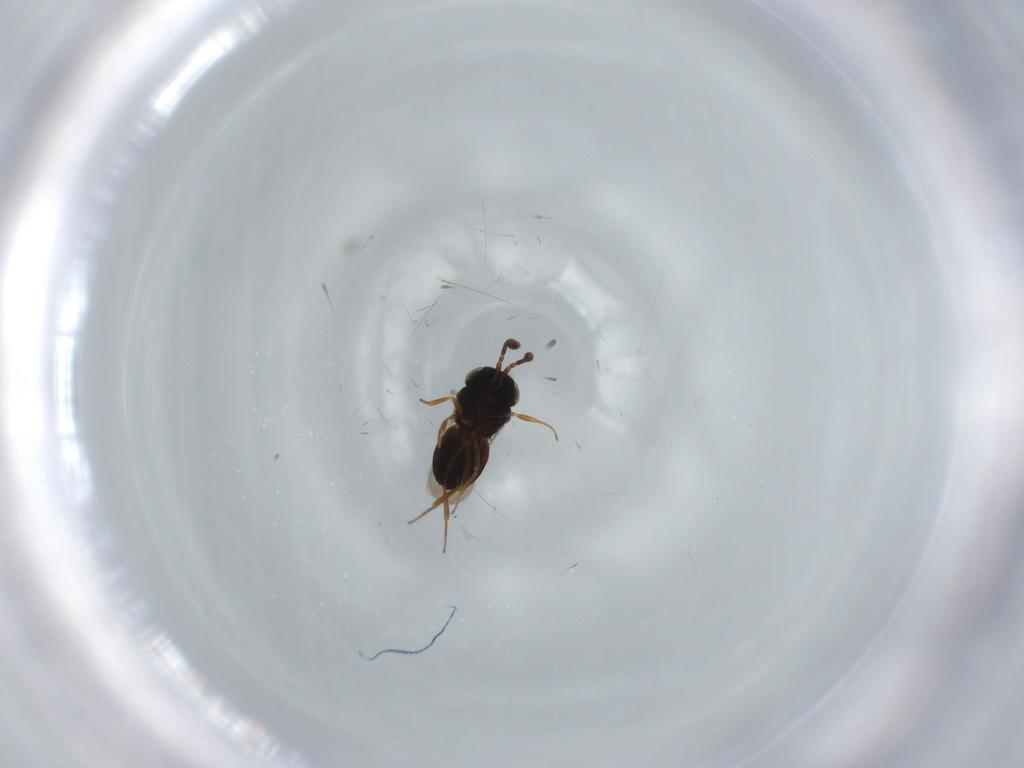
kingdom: Animalia
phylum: Arthropoda
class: Insecta
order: Coleoptera
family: Curculionidae
